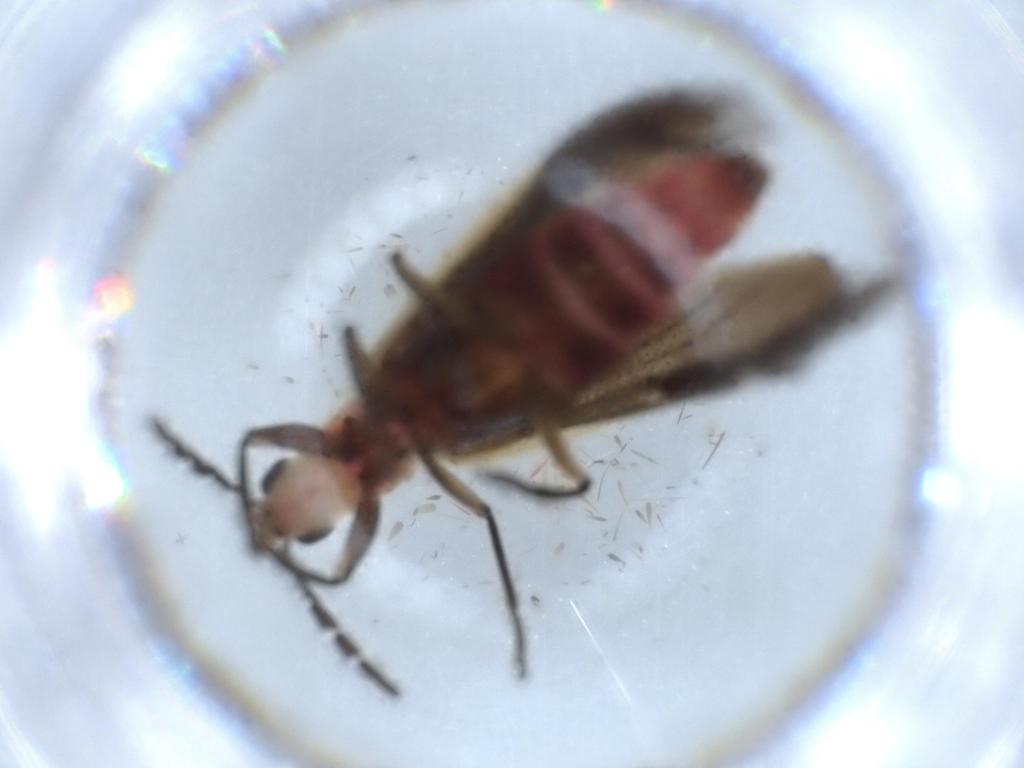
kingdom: Animalia
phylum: Arthropoda
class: Insecta
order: Coleoptera
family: Cleridae
